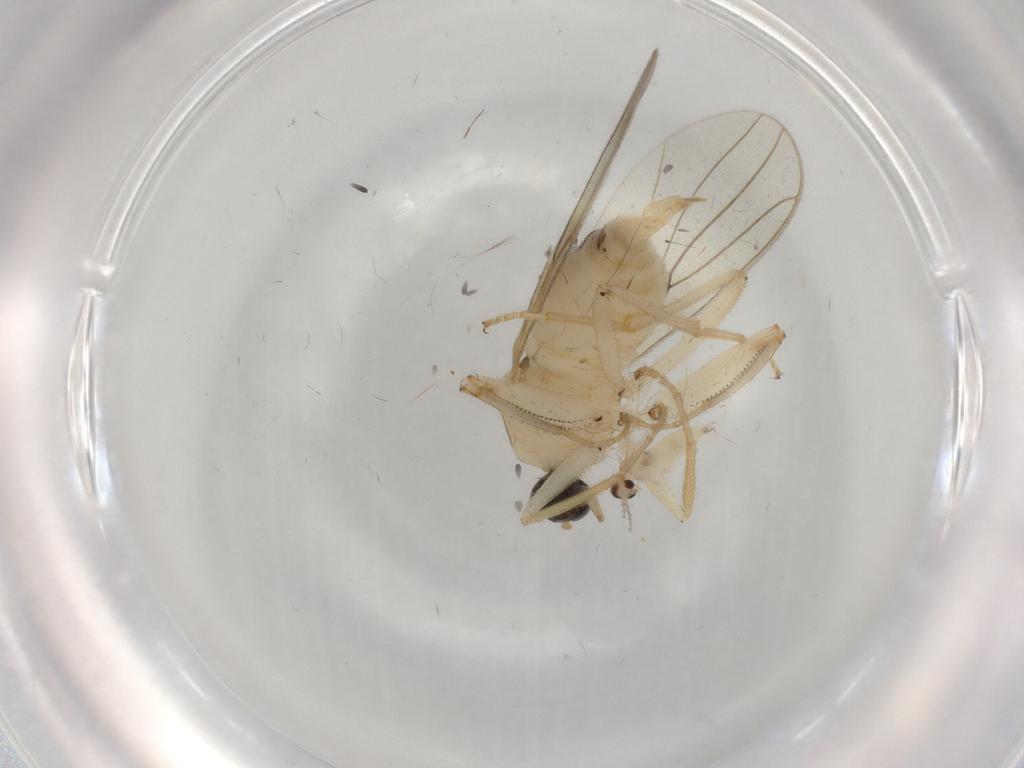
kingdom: Animalia
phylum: Arthropoda
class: Insecta
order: Diptera
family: Hybotidae
